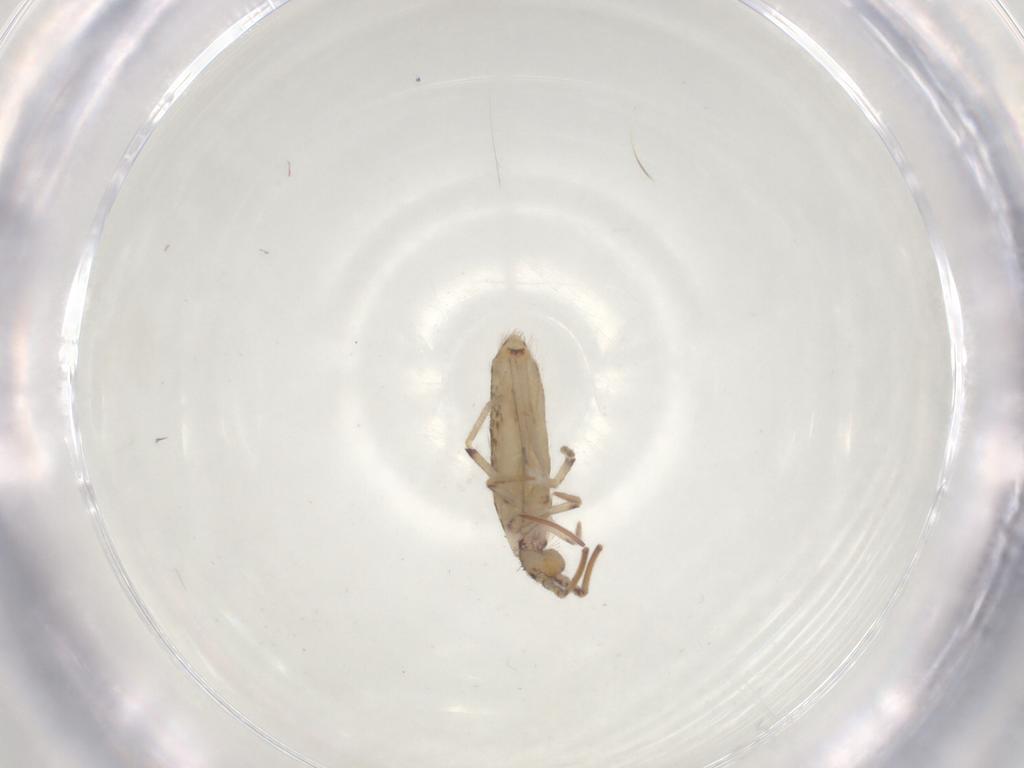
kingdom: Animalia
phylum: Arthropoda
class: Collembola
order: Entomobryomorpha
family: Entomobryidae
